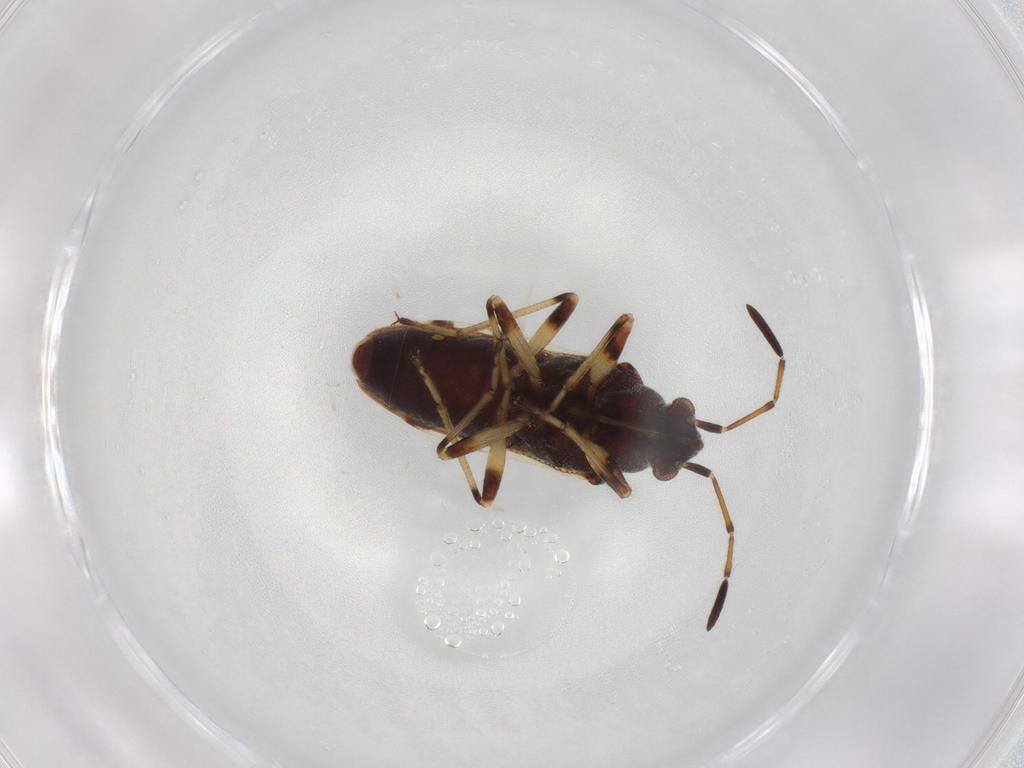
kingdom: Animalia
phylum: Arthropoda
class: Insecta
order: Hemiptera
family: Rhyparochromidae
